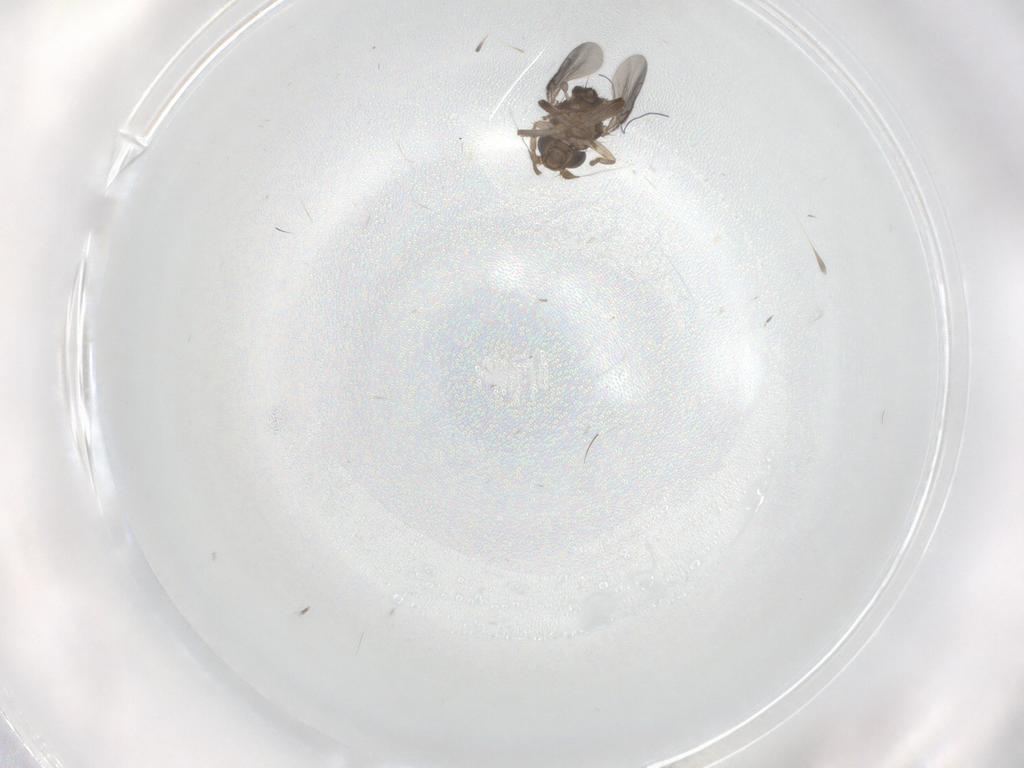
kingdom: Animalia
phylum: Arthropoda
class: Insecta
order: Diptera
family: Sphaeroceridae
